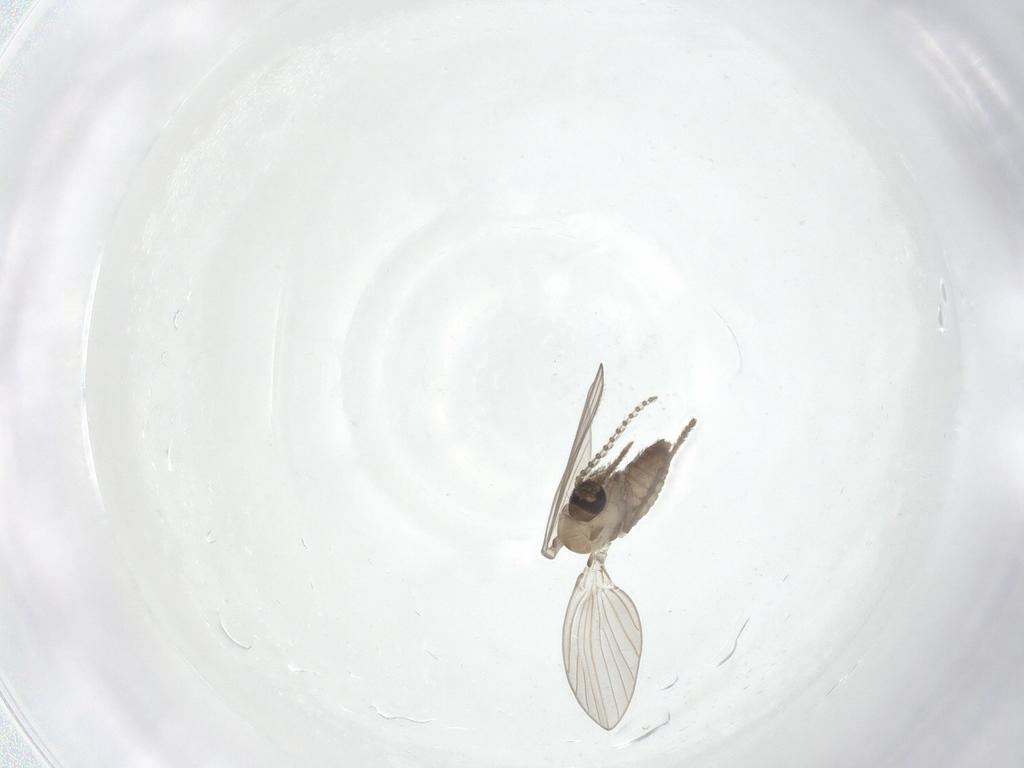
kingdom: Animalia
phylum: Arthropoda
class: Insecta
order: Diptera
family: Psychodidae
